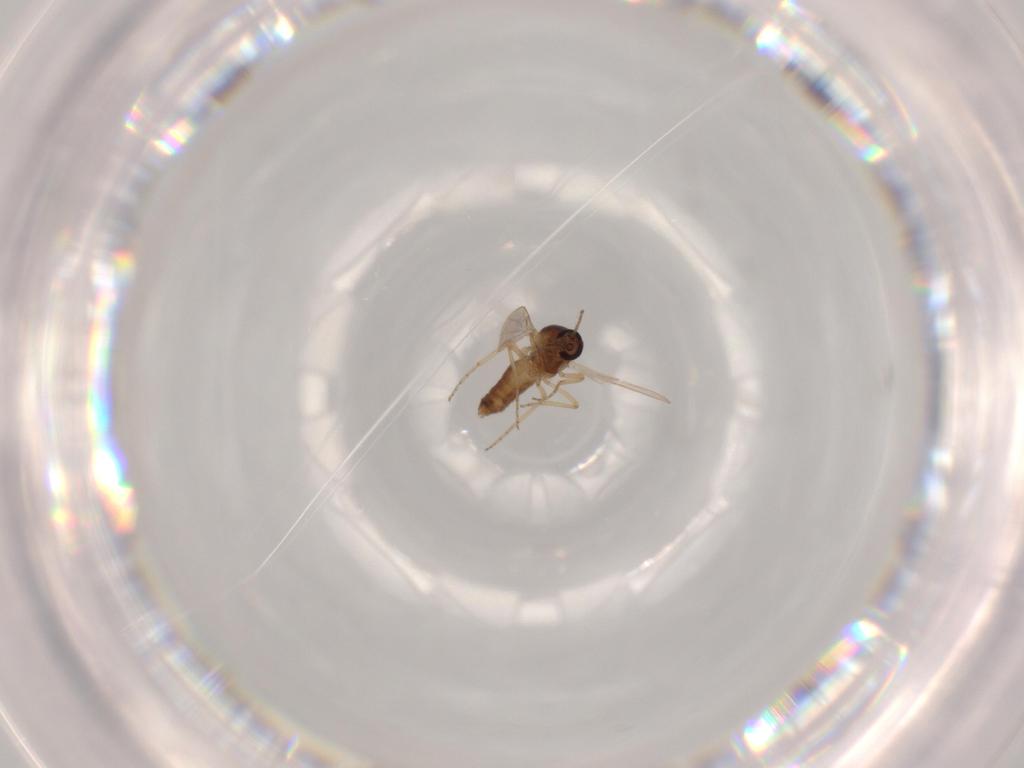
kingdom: Animalia
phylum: Arthropoda
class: Insecta
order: Diptera
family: Ceratopogonidae
